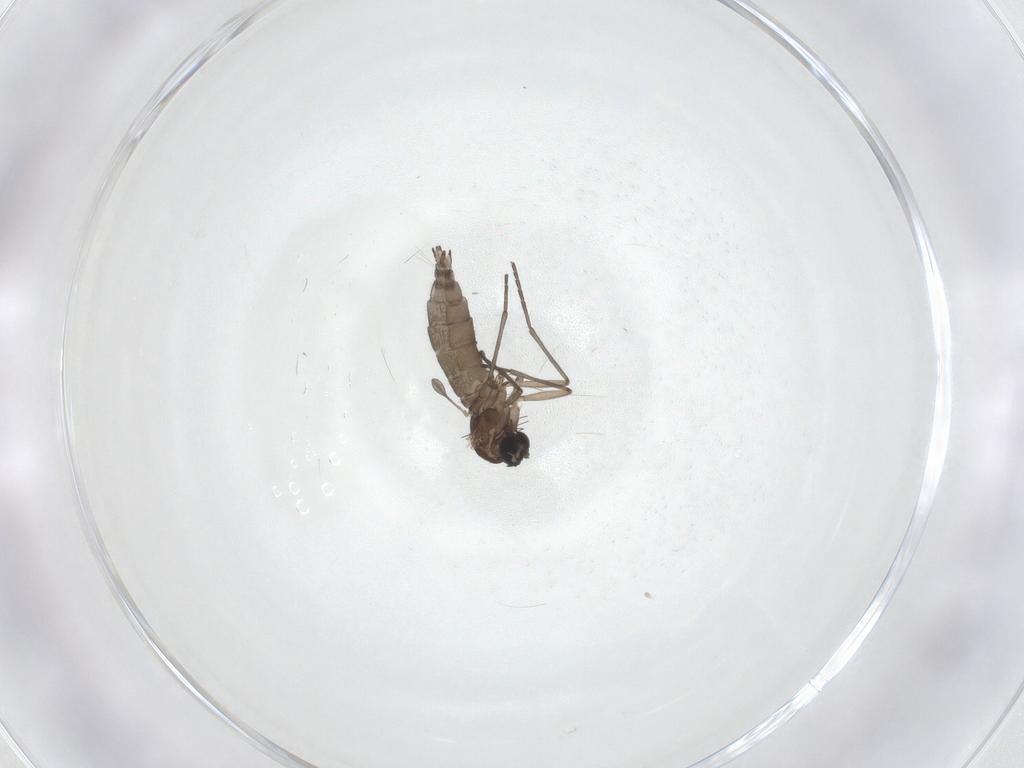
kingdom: Animalia
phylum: Arthropoda
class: Insecta
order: Diptera
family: Sciaridae
